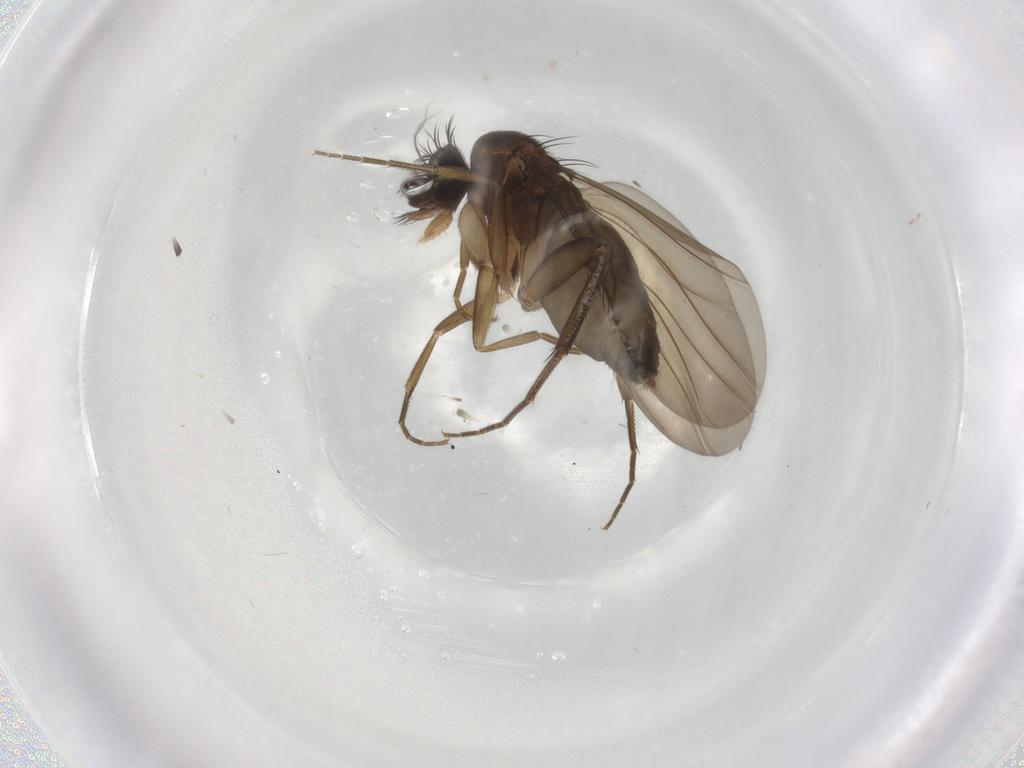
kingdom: Animalia
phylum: Arthropoda
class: Insecta
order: Diptera
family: Phoridae
